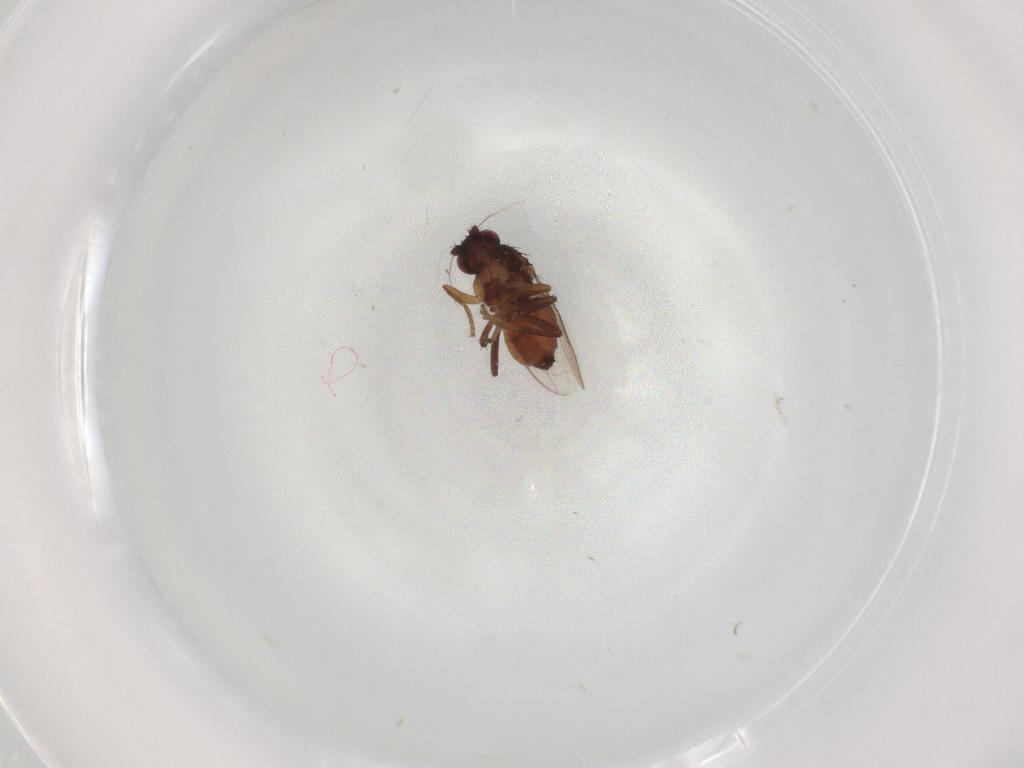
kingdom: Animalia
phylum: Arthropoda
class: Insecta
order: Diptera
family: Sphaeroceridae
